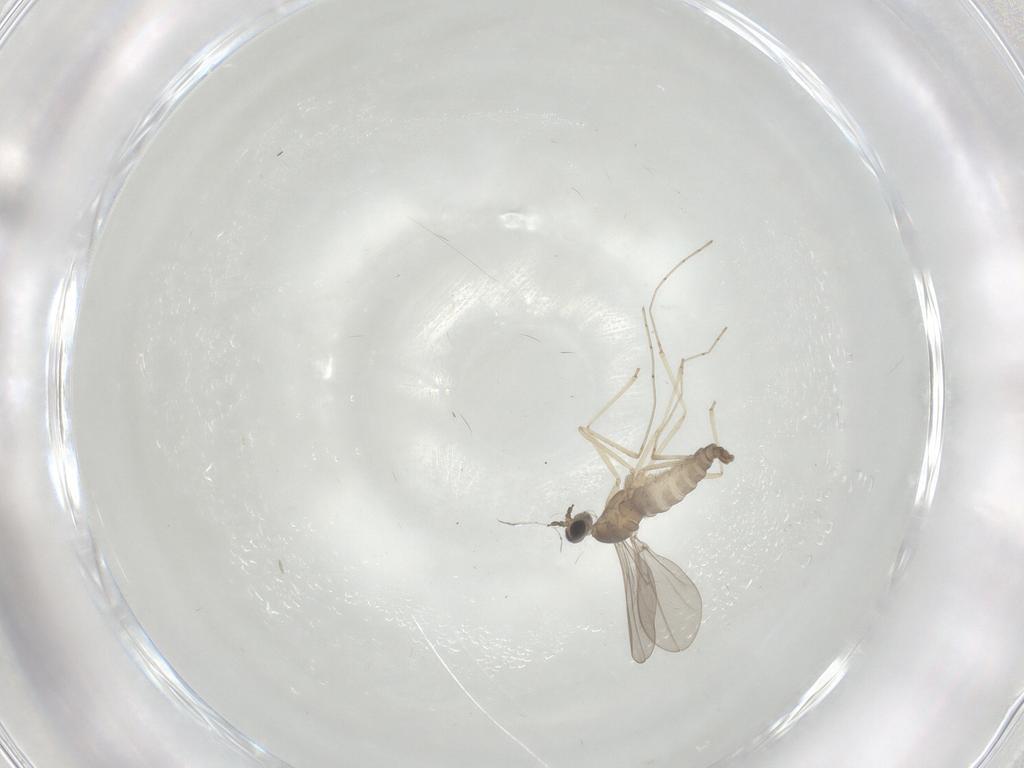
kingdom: Animalia
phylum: Arthropoda
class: Insecta
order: Diptera
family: Cecidomyiidae
